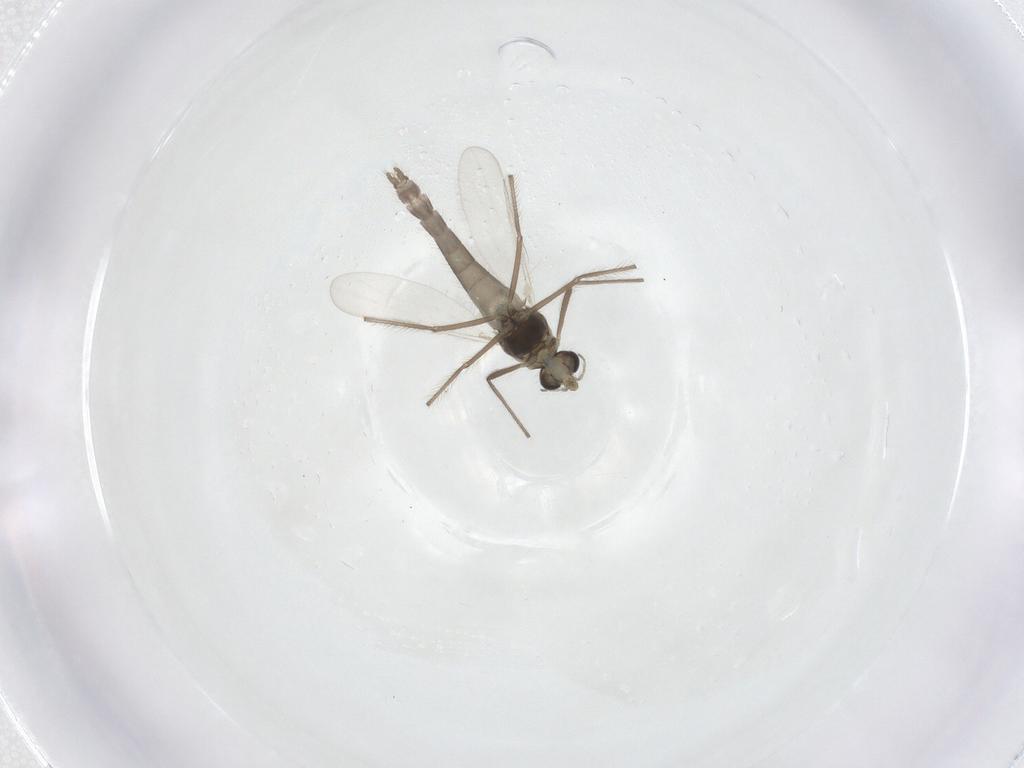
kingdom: Animalia
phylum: Arthropoda
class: Insecta
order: Diptera
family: Chironomidae
